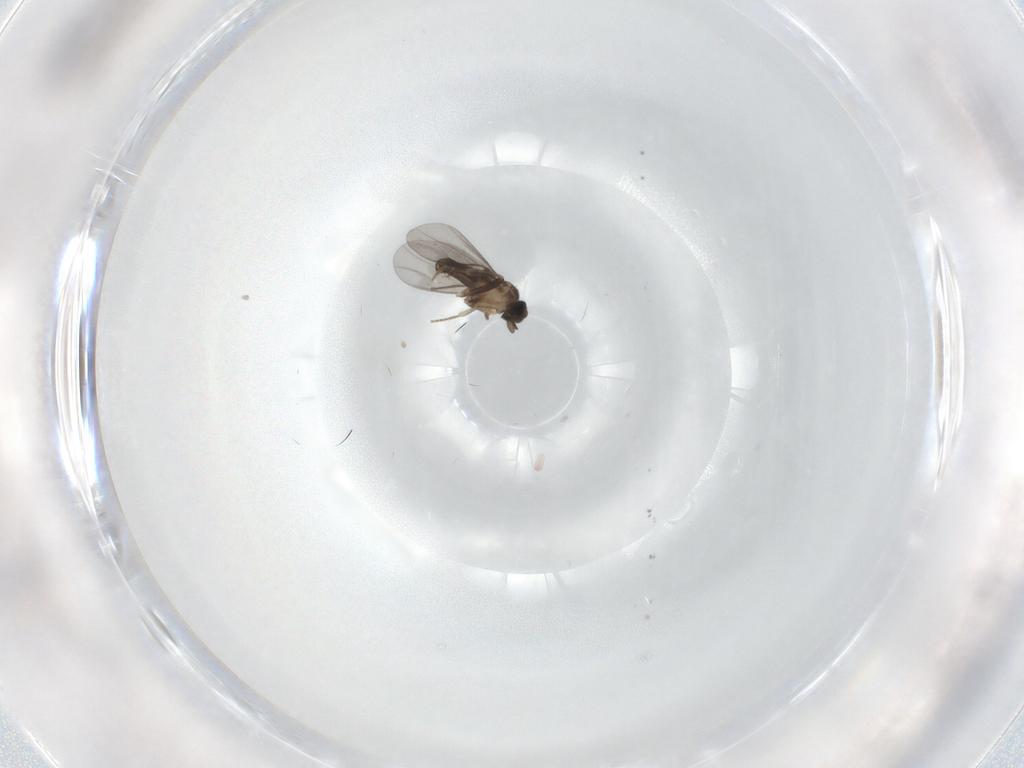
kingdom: Animalia
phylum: Arthropoda
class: Insecta
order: Diptera
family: Phoridae
